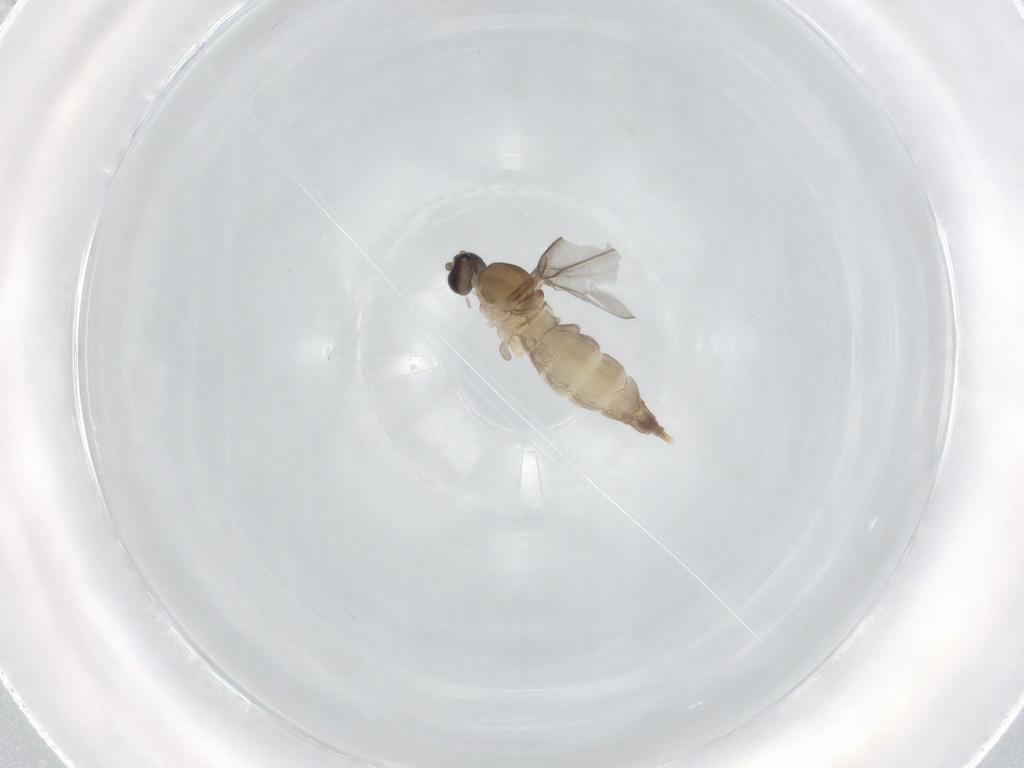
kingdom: Animalia
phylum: Arthropoda
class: Insecta
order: Diptera
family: Cecidomyiidae
